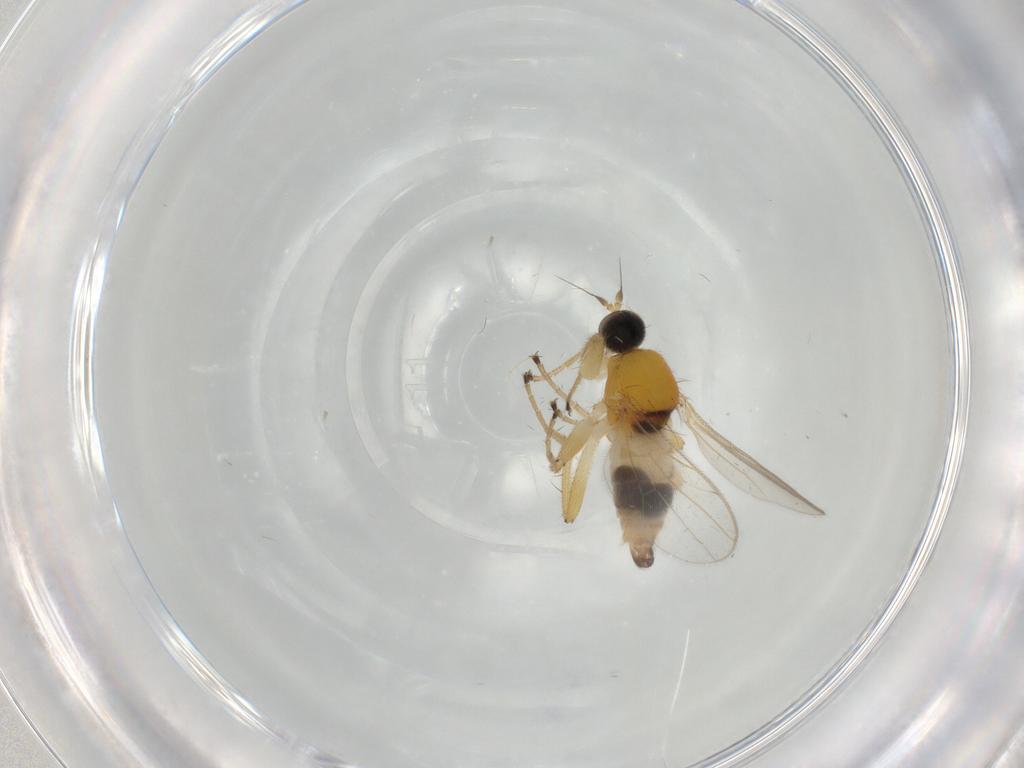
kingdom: Animalia
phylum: Arthropoda
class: Insecta
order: Diptera
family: Hybotidae
